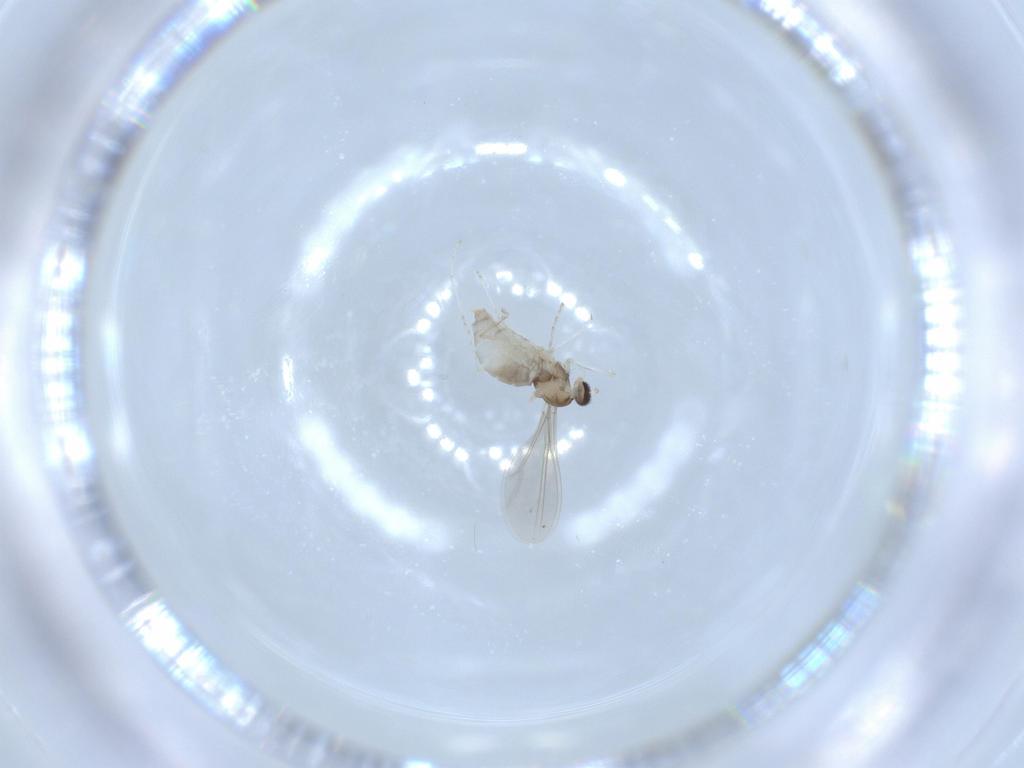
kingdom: Animalia
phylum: Arthropoda
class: Insecta
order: Diptera
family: Cecidomyiidae
